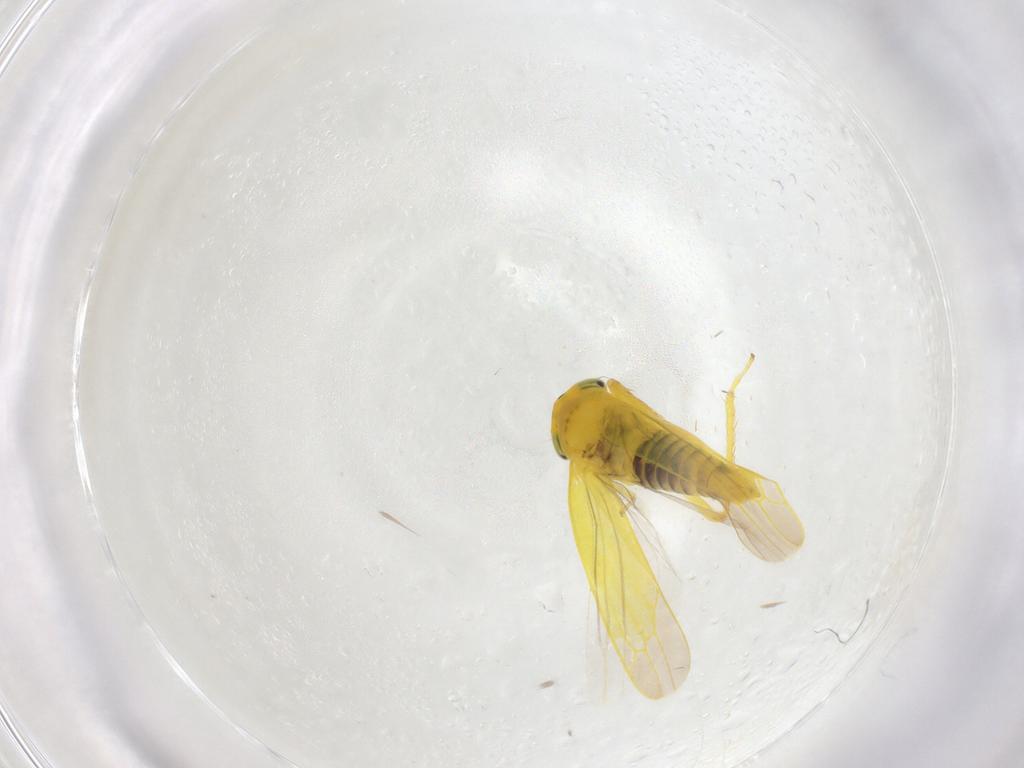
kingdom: Animalia
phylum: Arthropoda
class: Insecta
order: Hemiptera
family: Cicadellidae
